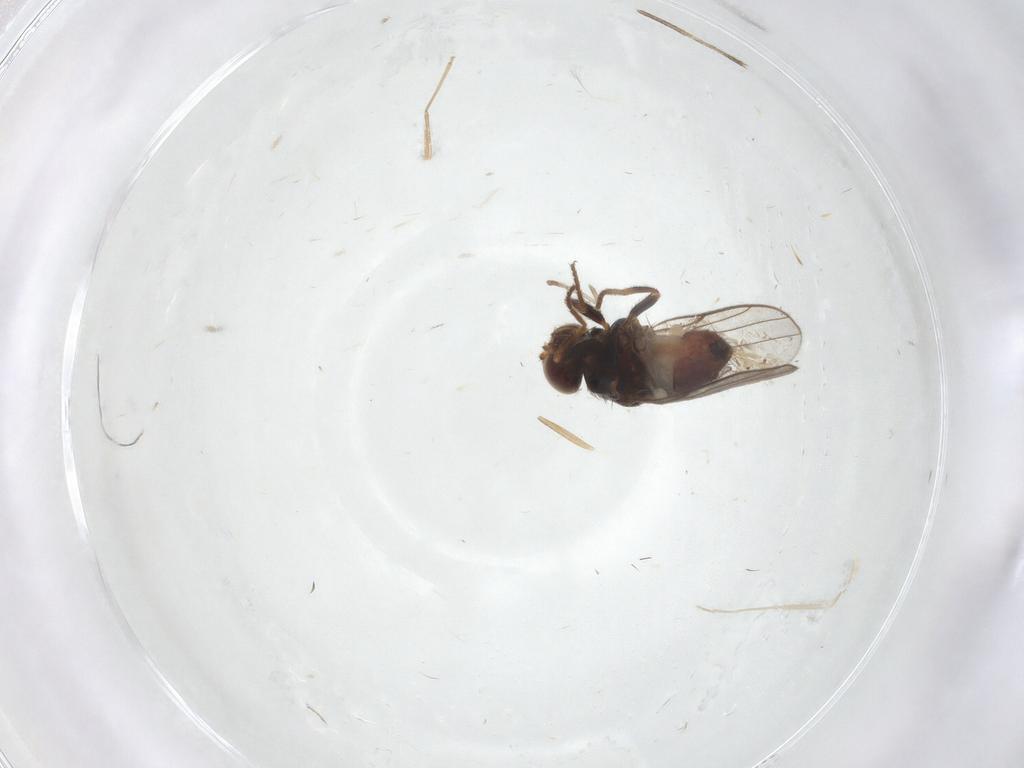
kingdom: Animalia
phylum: Arthropoda
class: Insecta
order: Diptera
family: Chloropidae
